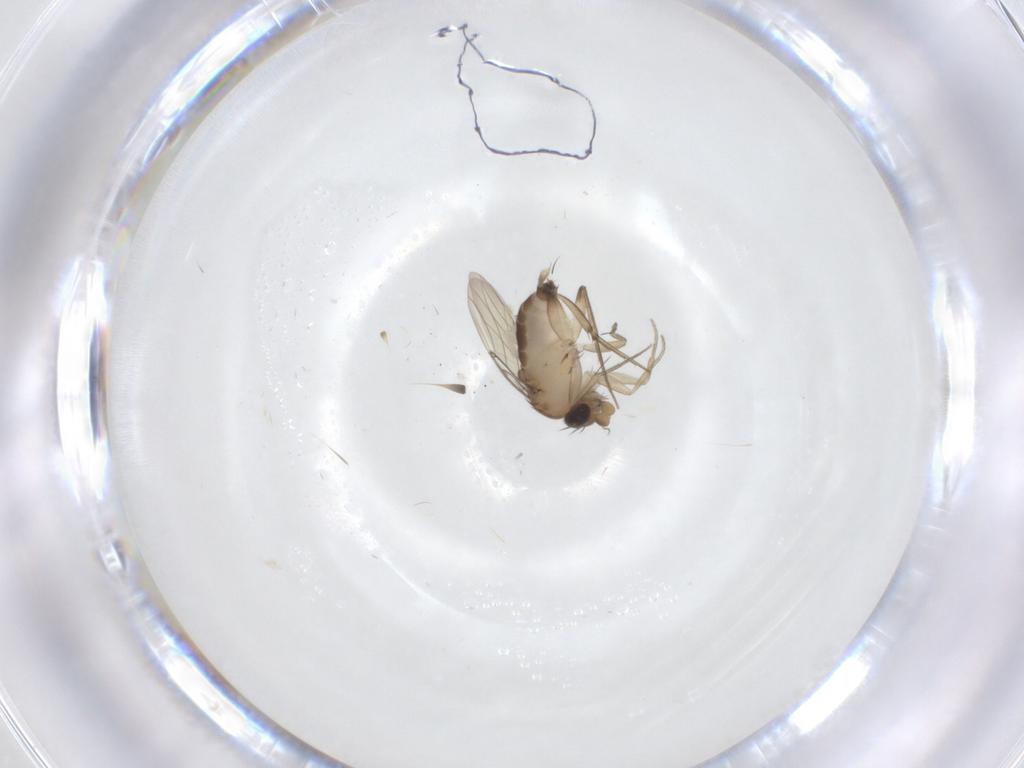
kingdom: Animalia
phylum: Arthropoda
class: Insecta
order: Diptera
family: Phoridae
